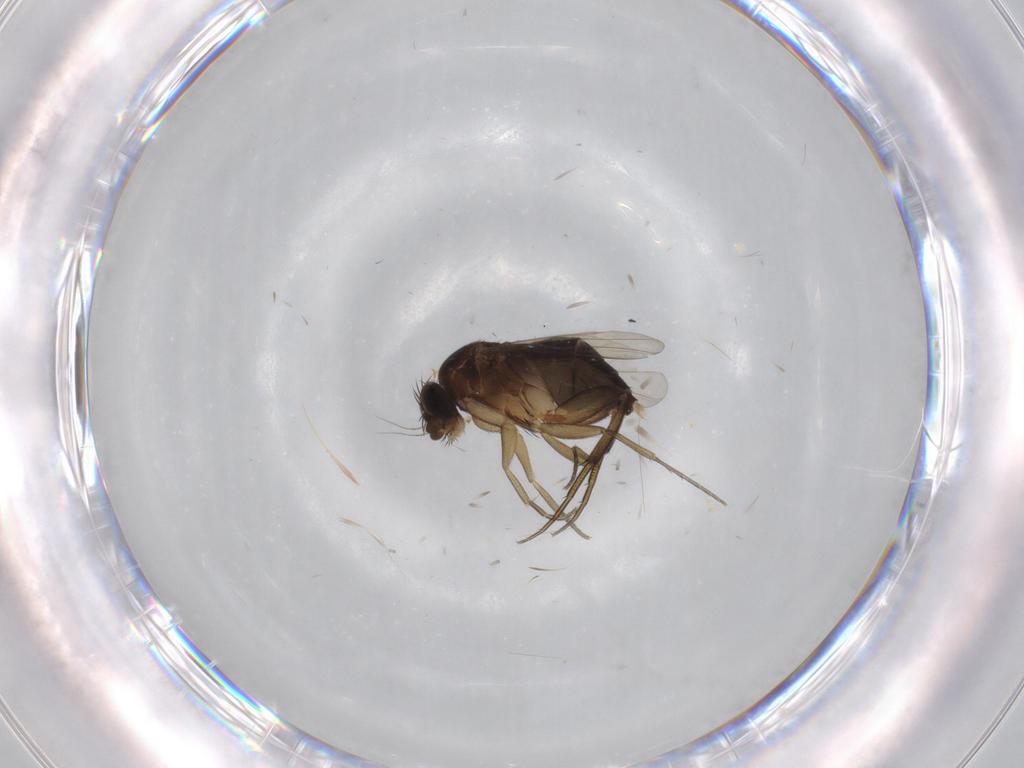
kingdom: Animalia
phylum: Arthropoda
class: Insecta
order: Diptera
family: Phoridae
